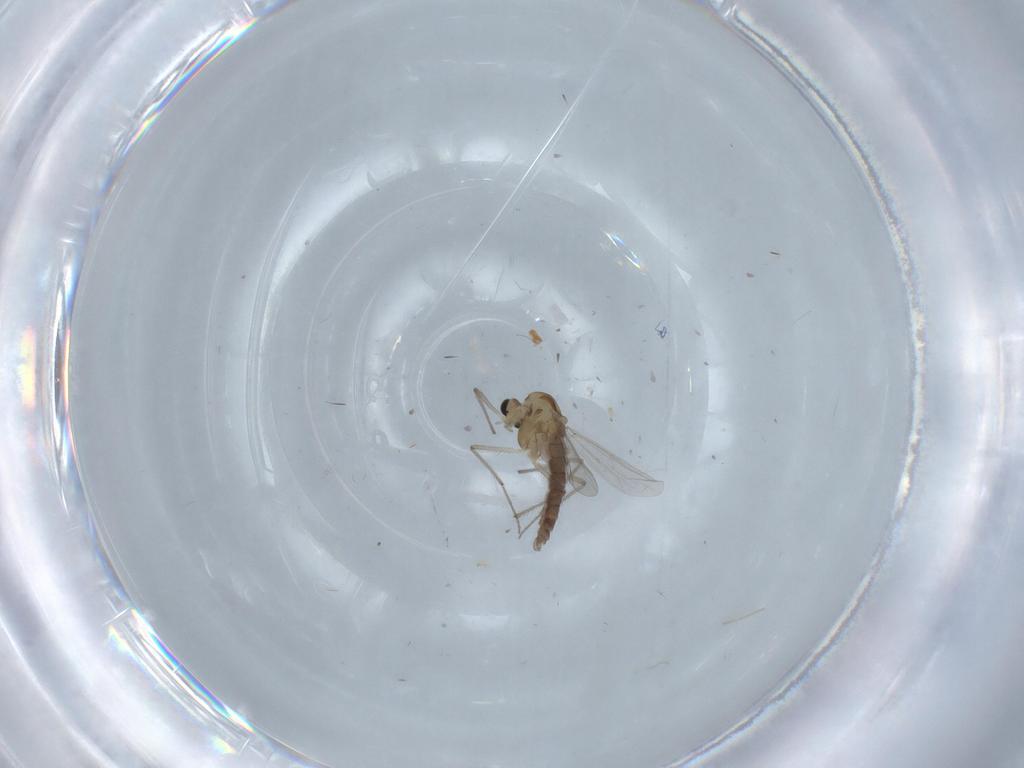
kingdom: Animalia
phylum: Arthropoda
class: Insecta
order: Diptera
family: Chironomidae
